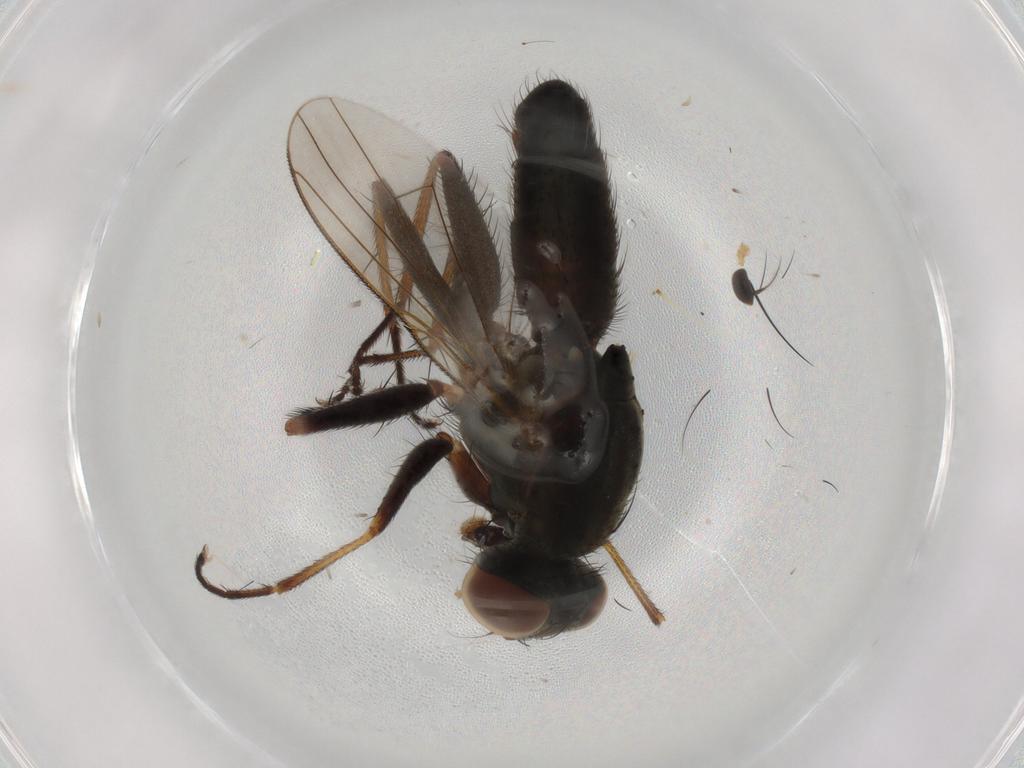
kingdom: Animalia
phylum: Arthropoda
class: Insecta
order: Diptera
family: Muscidae
